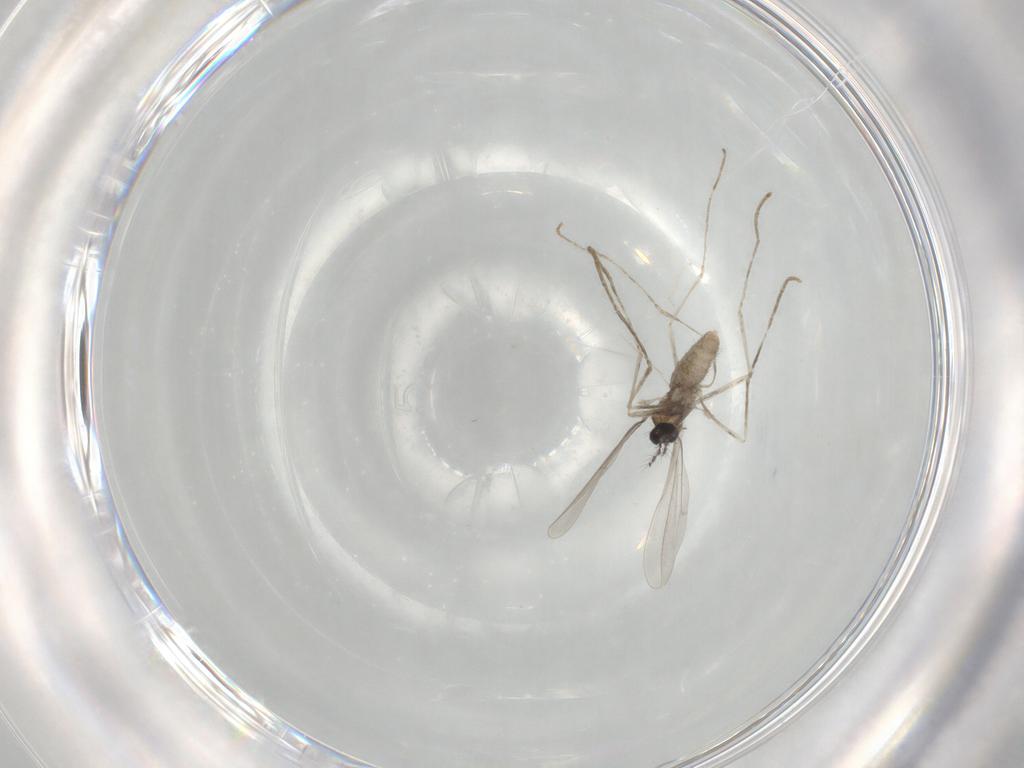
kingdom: Animalia
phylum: Arthropoda
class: Insecta
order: Diptera
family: Cecidomyiidae
